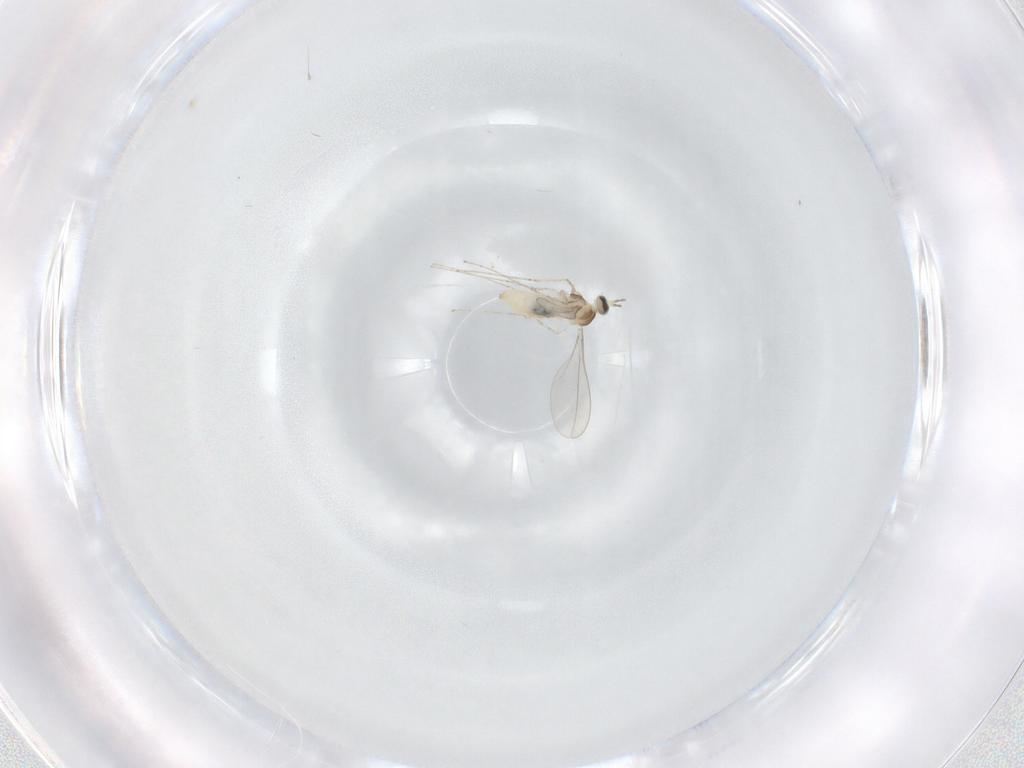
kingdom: Animalia
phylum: Arthropoda
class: Insecta
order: Diptera
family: Cecidomyiidae
